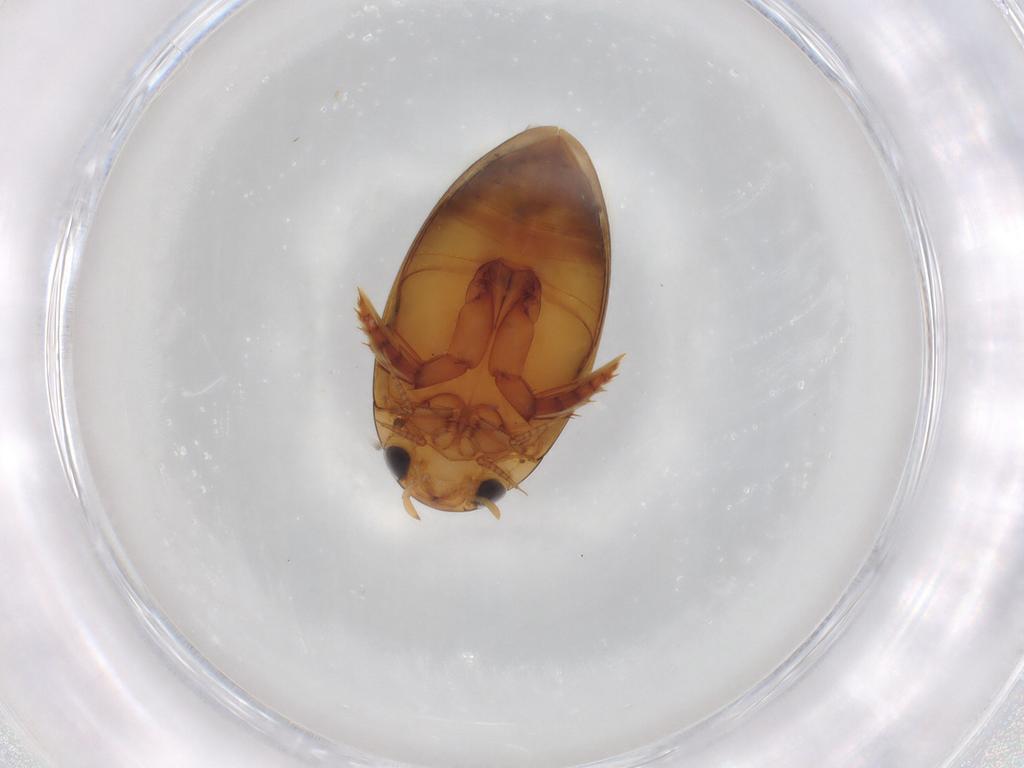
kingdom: Animalia
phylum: Arthropoda
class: Insecta
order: Coleoptera
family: Dytiscidae
